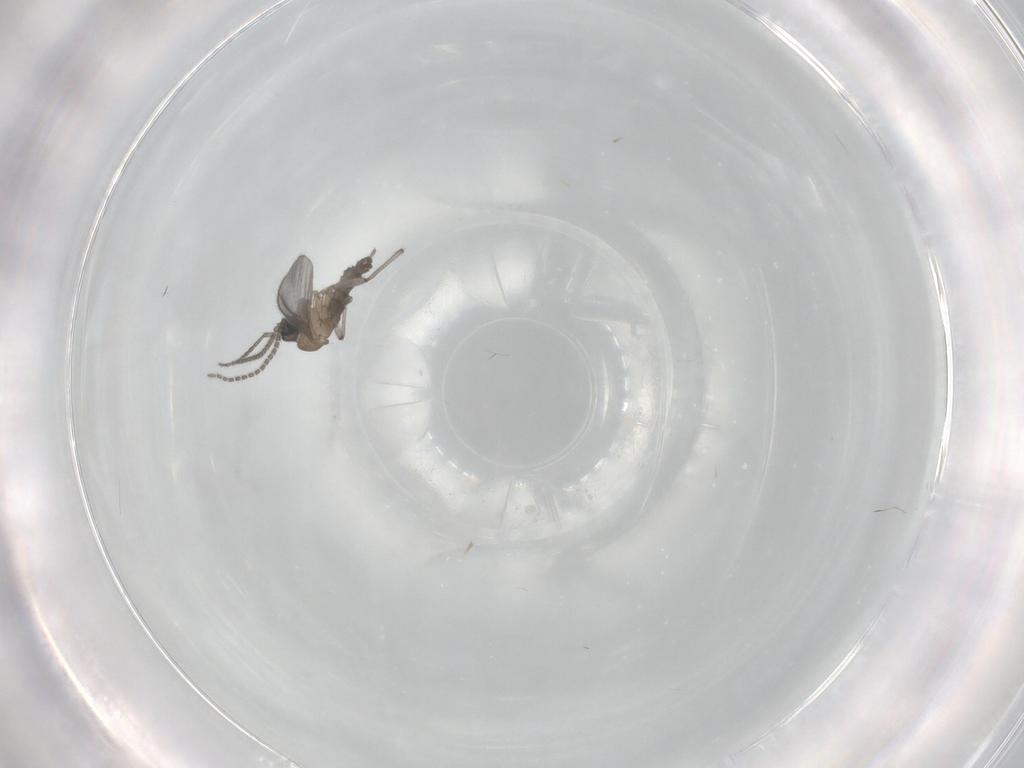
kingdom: Animalia
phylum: Arthropoda
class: Insecta
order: Diptera
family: Sciaridae
